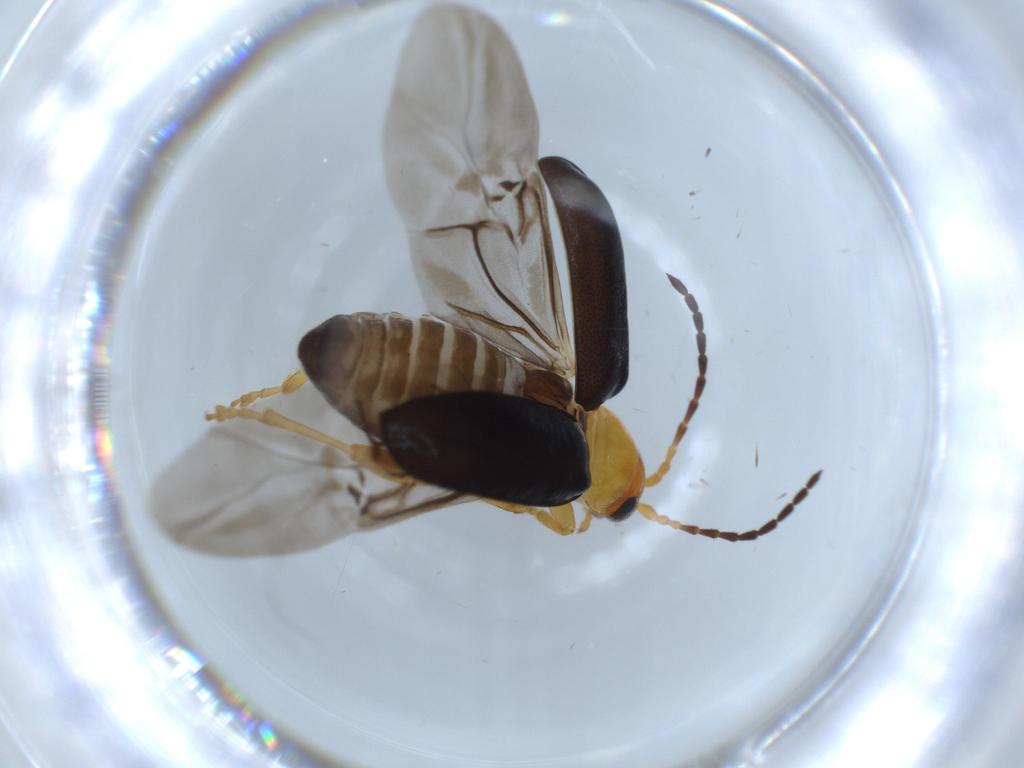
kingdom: Animalia
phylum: Arthropoda
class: Insecta
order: Coleoptera
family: Chrysomelidae
